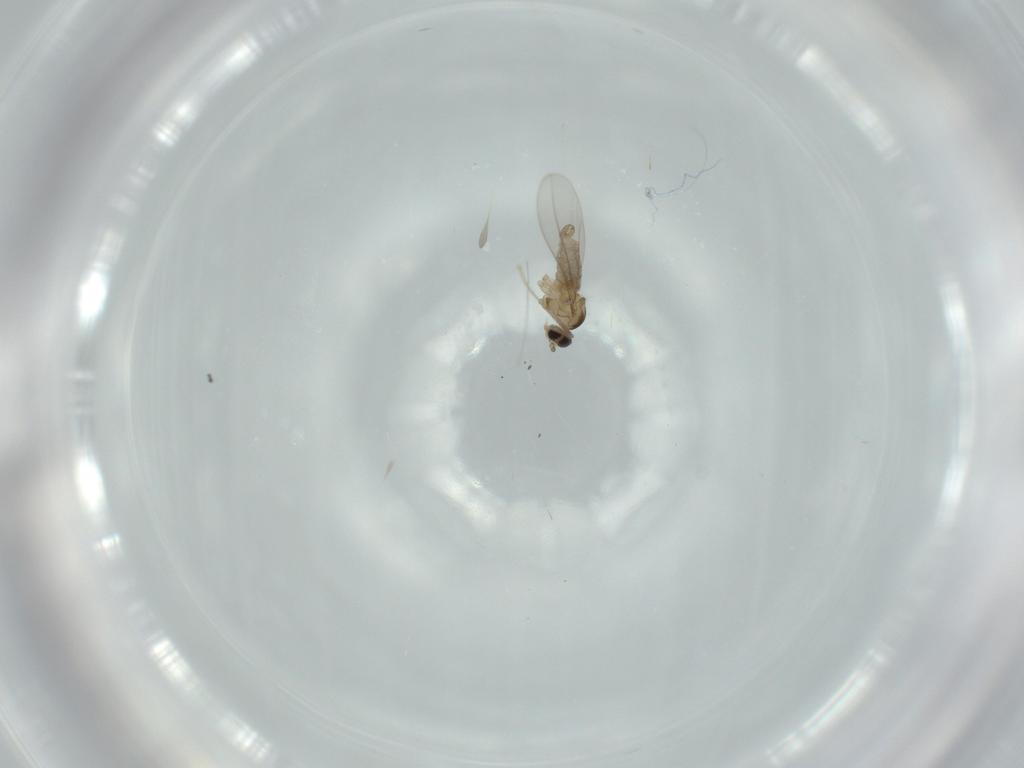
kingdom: Animalia
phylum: Arthropoda
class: Insecta
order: Diptera
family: Cecidomyiidae
